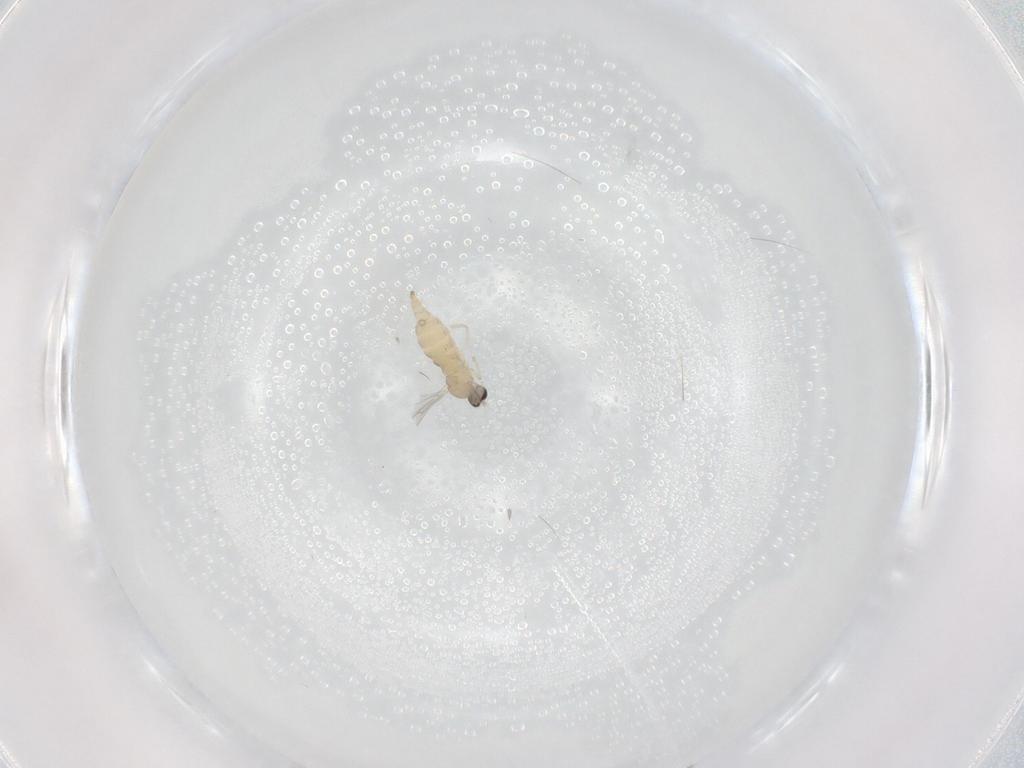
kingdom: Animalia
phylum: Arthropoda
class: Insecta
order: Diptera
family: Cecidomyiidae
